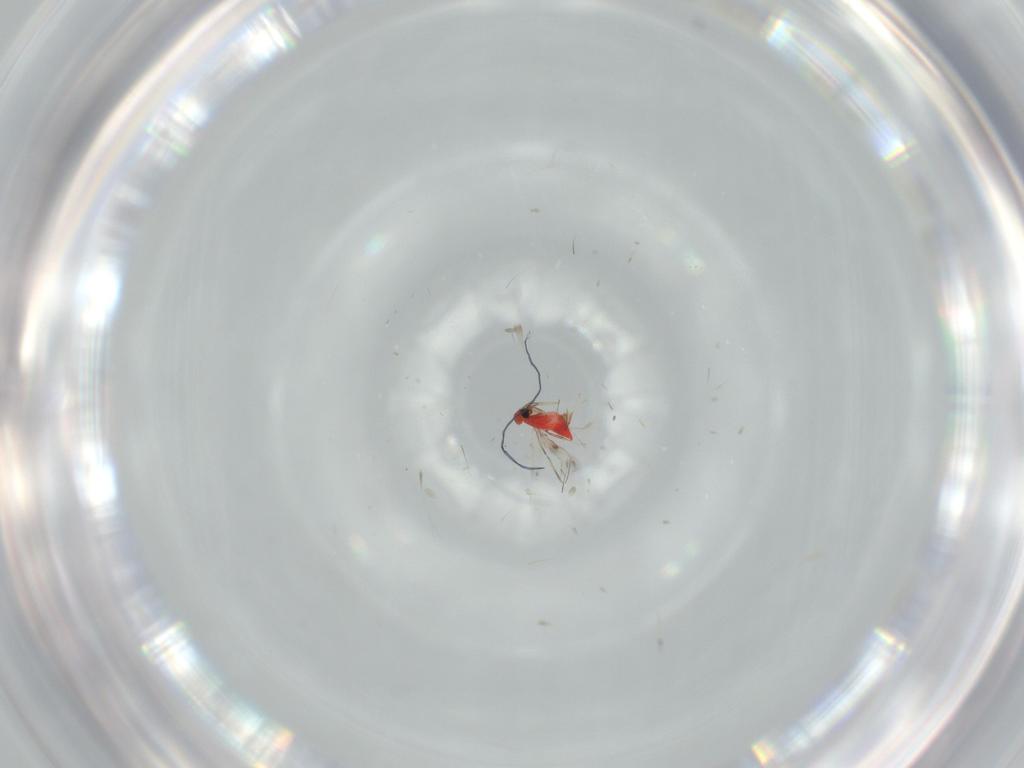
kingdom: Animalia
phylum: Arthropoda
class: Insecta
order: Hymenoptera
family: Trichogrammatidae
